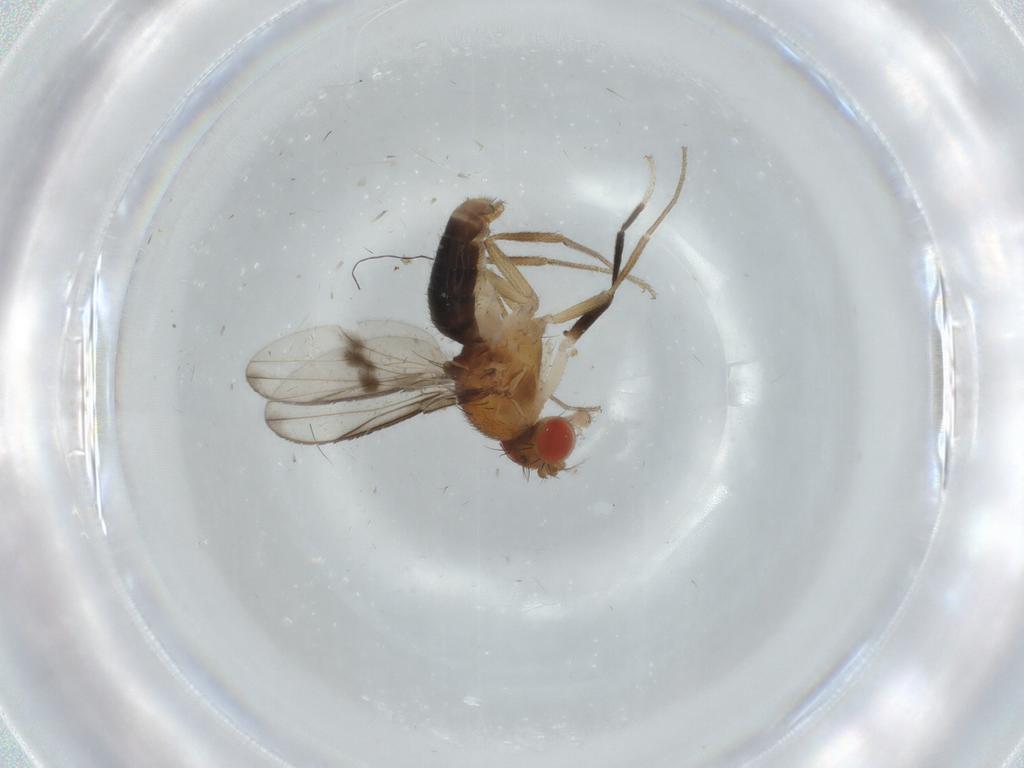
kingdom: Animalia
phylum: Arthropoda
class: Insecta
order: Diptera
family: Drosophilidae
